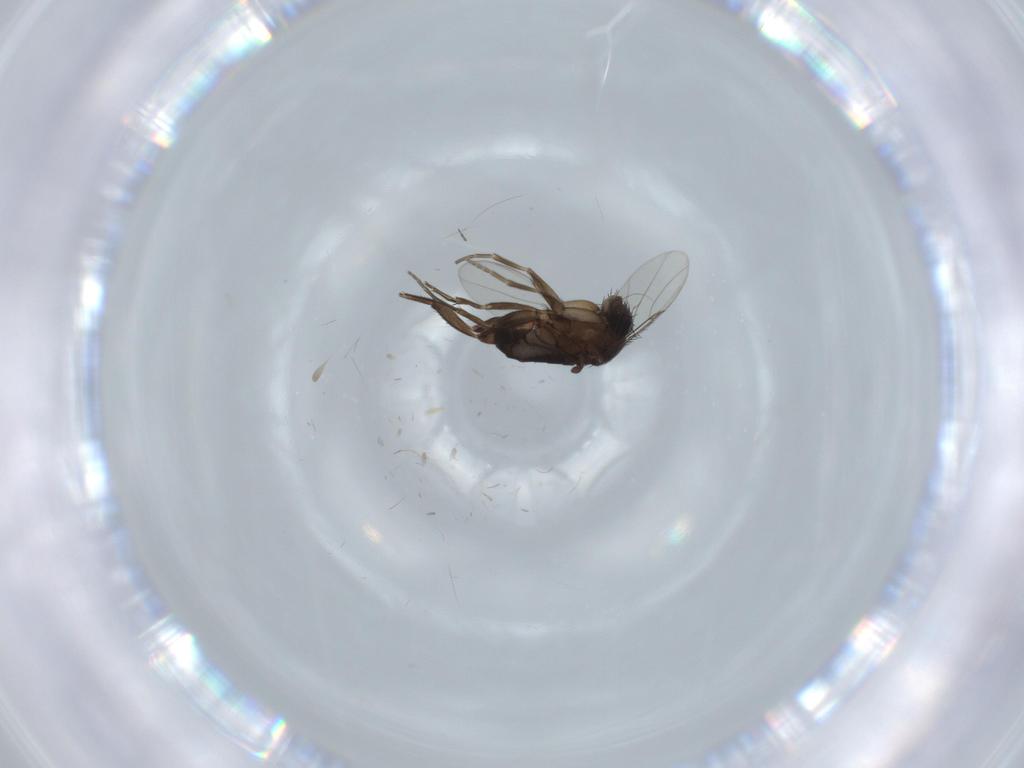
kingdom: Animalia
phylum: Arthropoda
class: Insecta
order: Diptera
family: Phoridae
